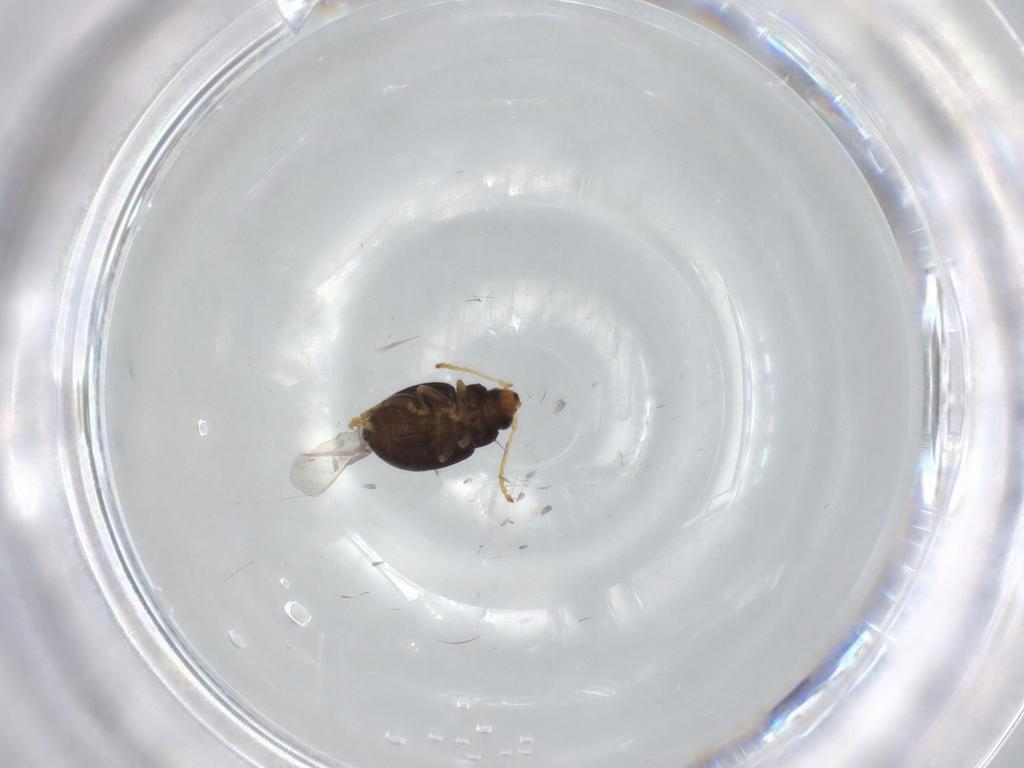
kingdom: Animalia
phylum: Arthropoda
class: Insecta
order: Coleoptera
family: Chrysomelidae
